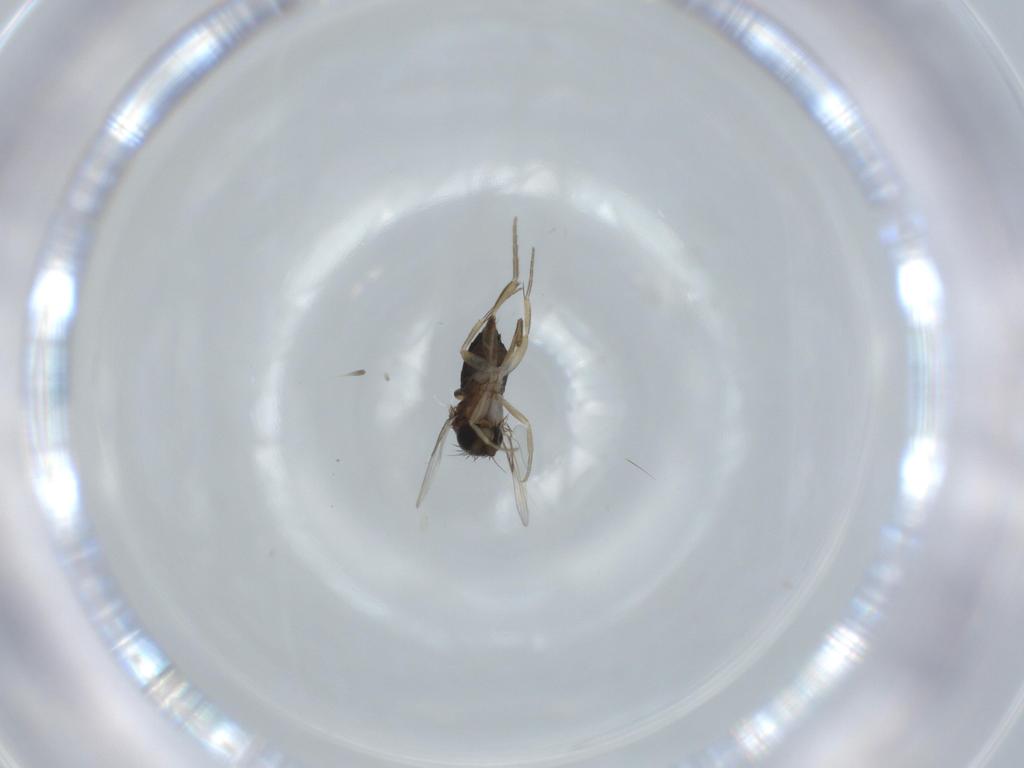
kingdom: Animalia
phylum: Arthropoda
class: Insecta
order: Diptera
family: Phoridae
